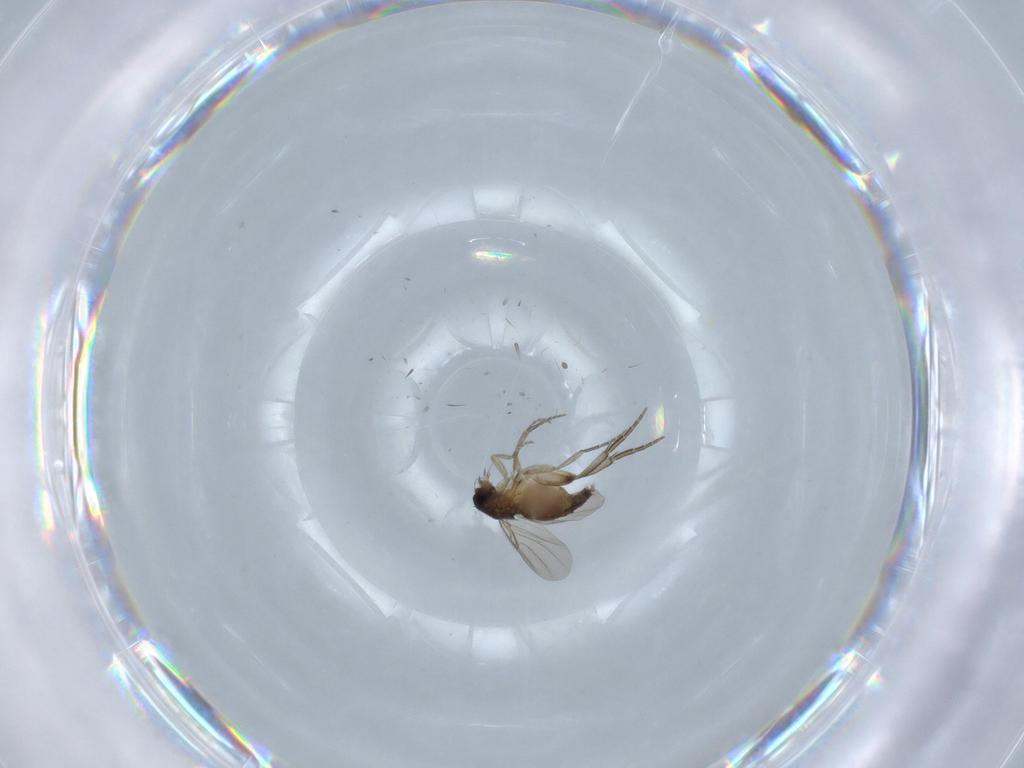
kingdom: Animalia
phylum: Arthropoda
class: Insecta
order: Diptera
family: Phoridae
